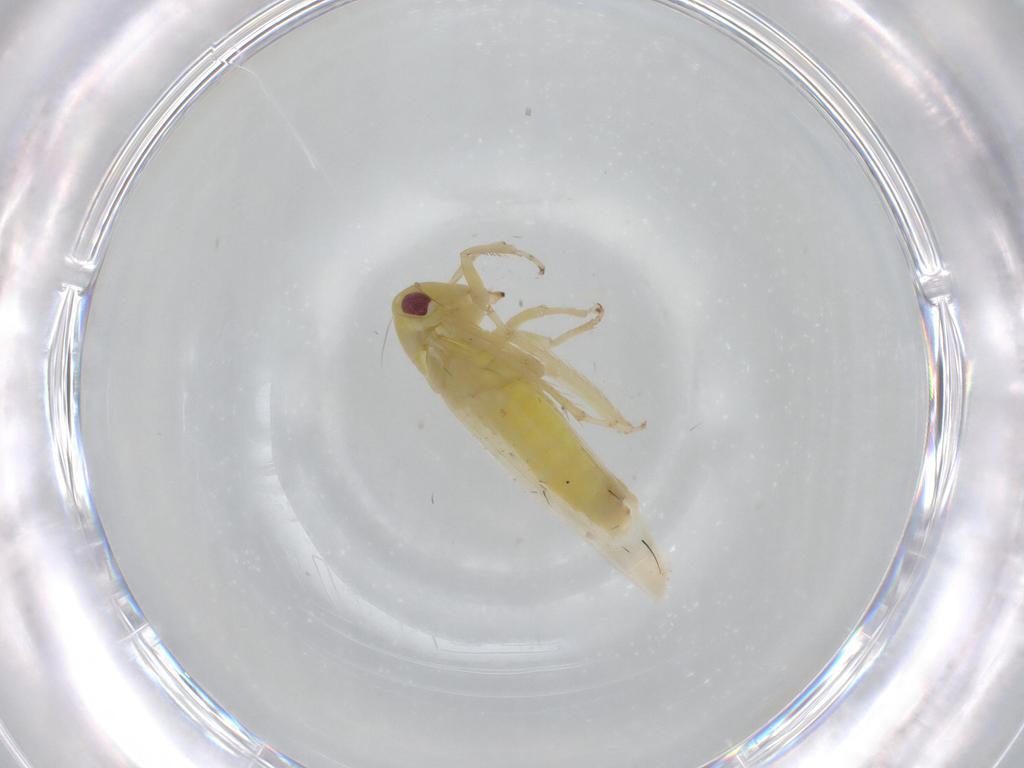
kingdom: Animalia
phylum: Arthropoda
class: Insecta
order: Hemiptera
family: Cicadellidae
